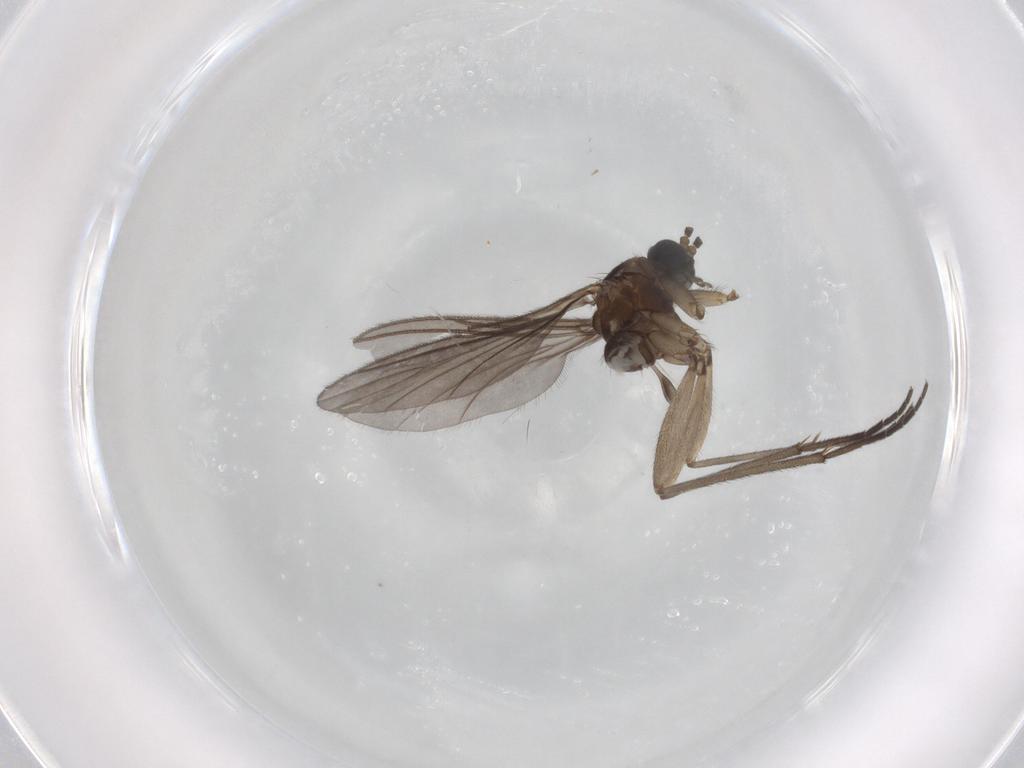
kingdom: Animalia
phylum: Arthropoda
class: Insecta
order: Diptera
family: Sciaridae
